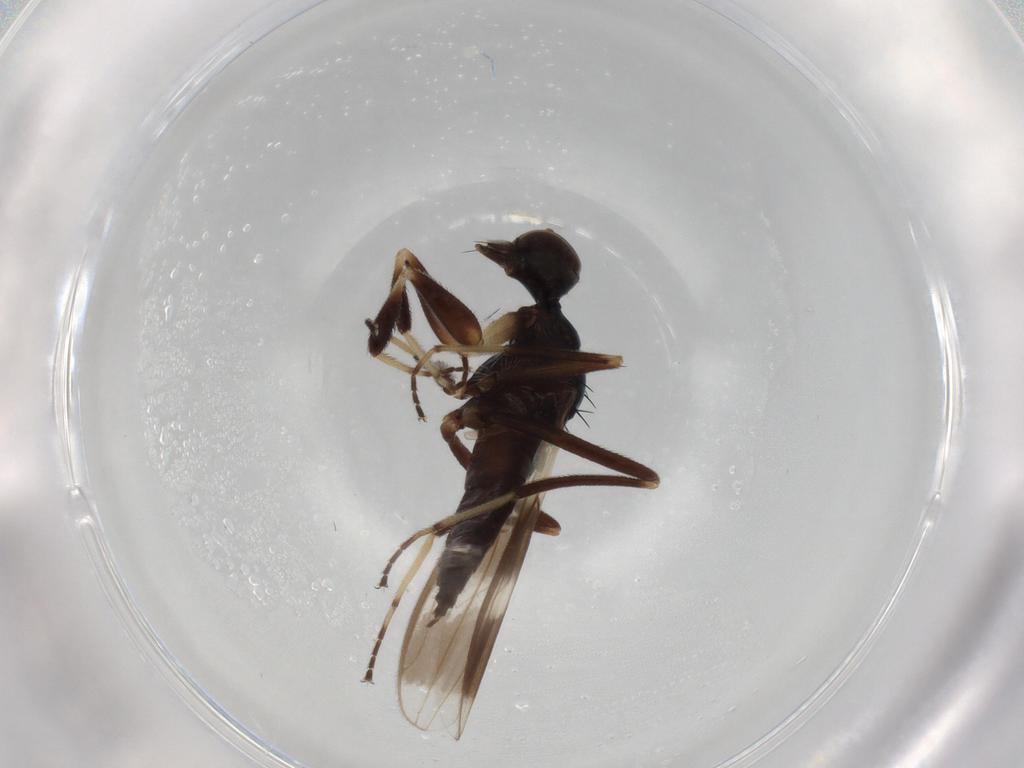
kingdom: Animalia
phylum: Arthropoda
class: Insecta
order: Diptera
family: Hybotidae
